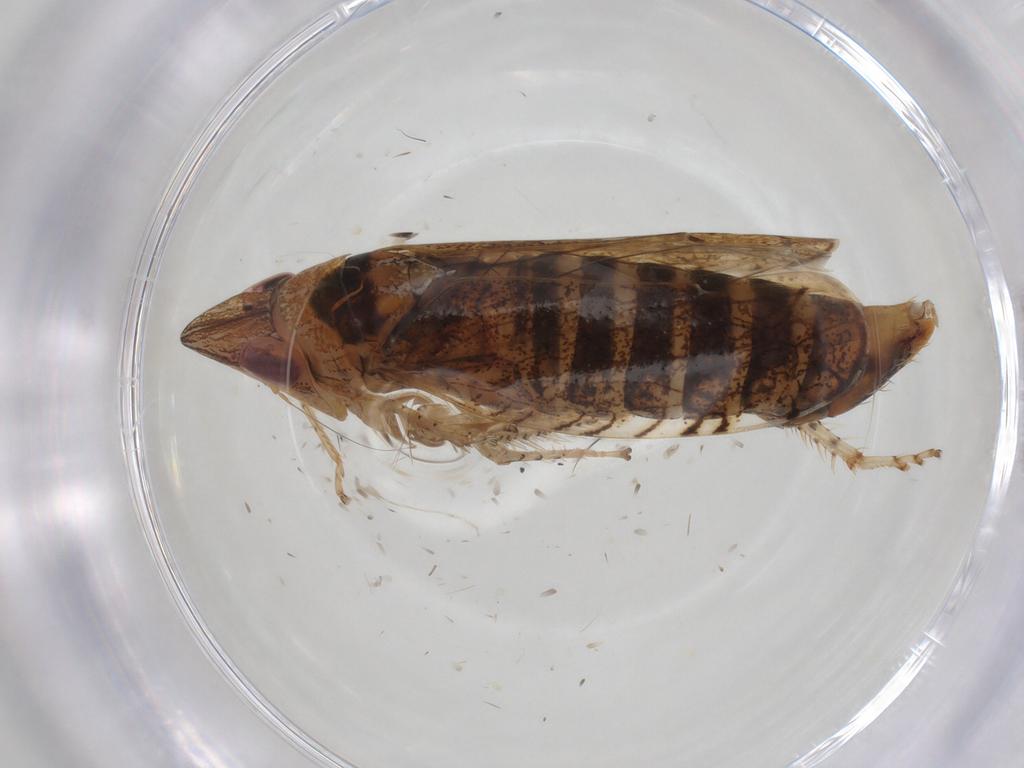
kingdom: Animalia
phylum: Arthropoda
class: Insecta
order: Hemiptera
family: Cicadellidae
